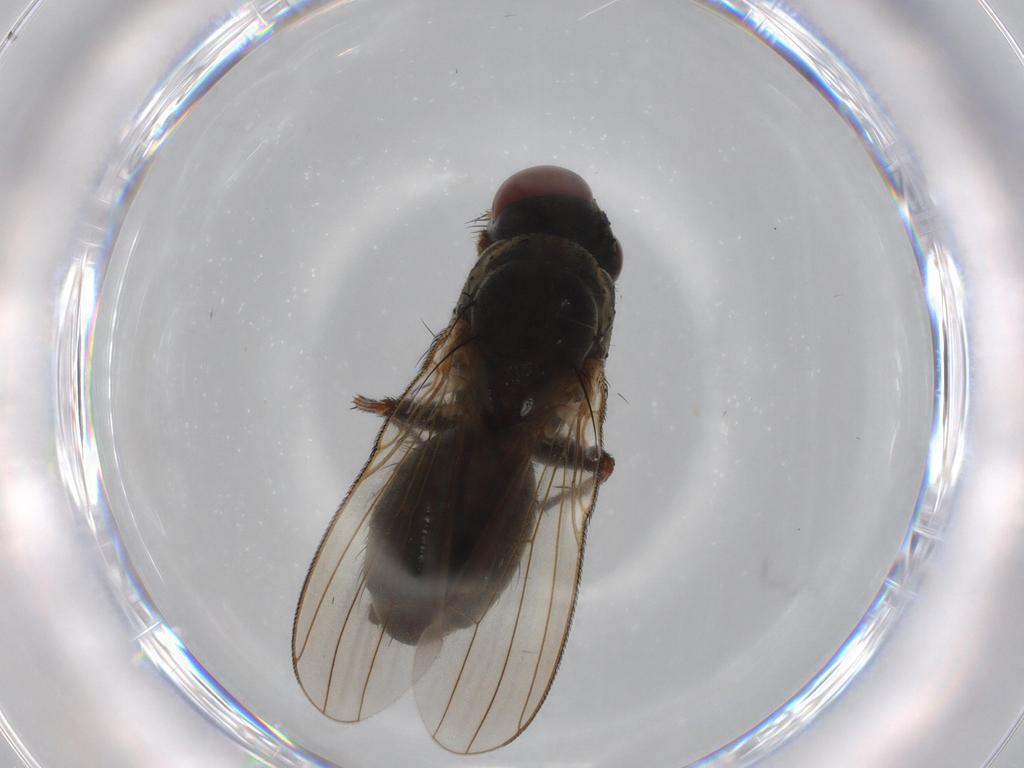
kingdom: Animalia
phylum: Arthropoda
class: Insecta
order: Diptera
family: Muscidae
